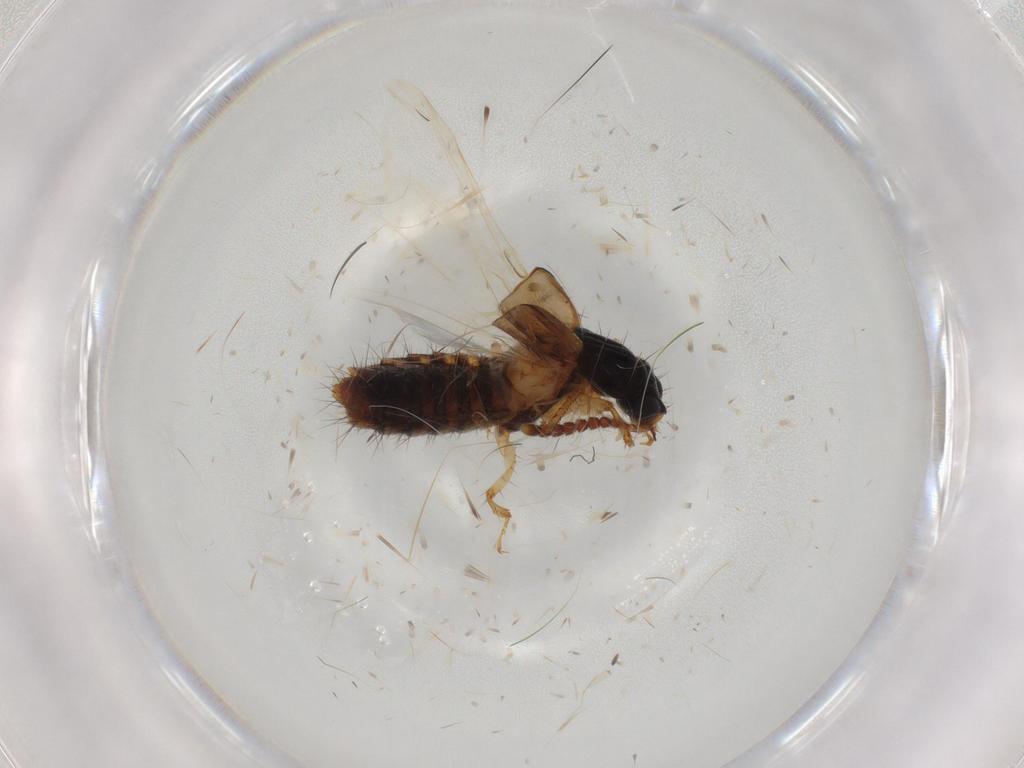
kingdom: Animalia
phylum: Arthropoda
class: Insecta
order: Coleoptera
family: Staphylinidae
